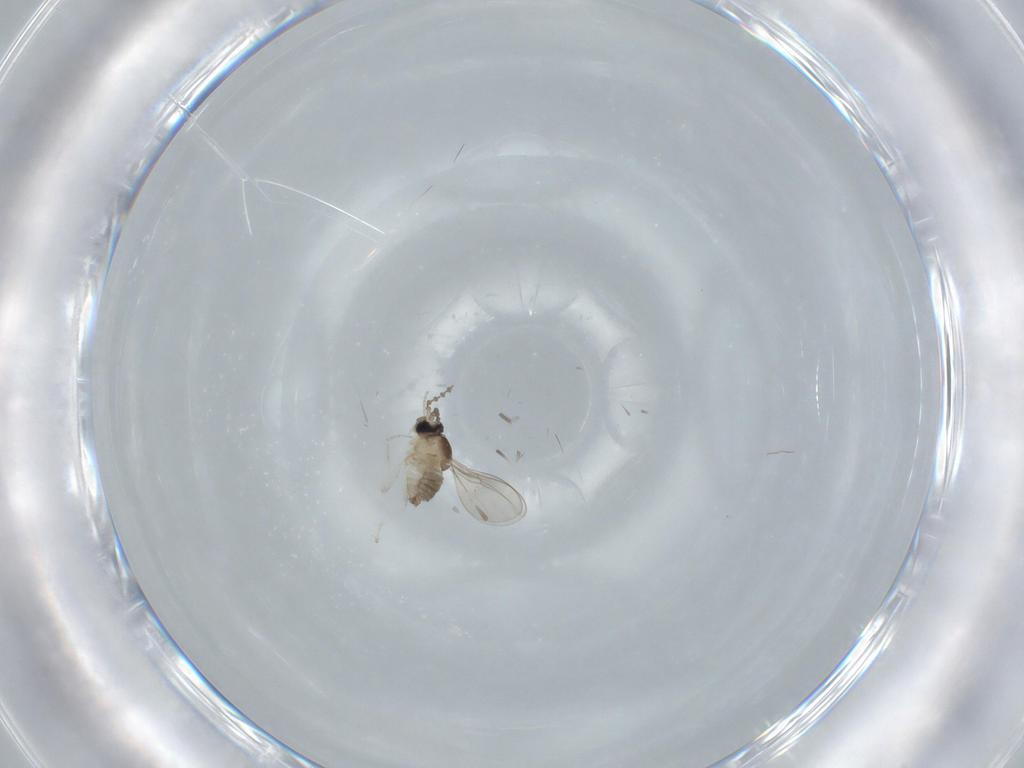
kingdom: Animalia
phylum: Arthropoda
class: Insecta
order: Diptera
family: Cecidomyiidae
